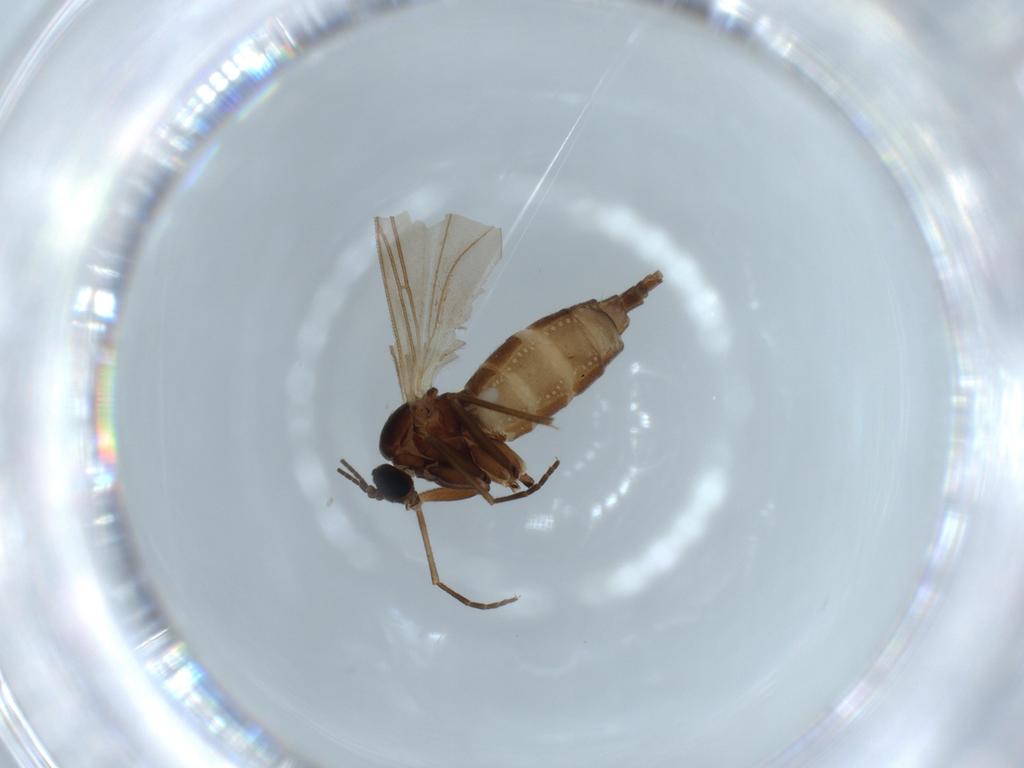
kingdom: Animalia
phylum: Arthropoda
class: Insecta
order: Diptera
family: Sciaridae
